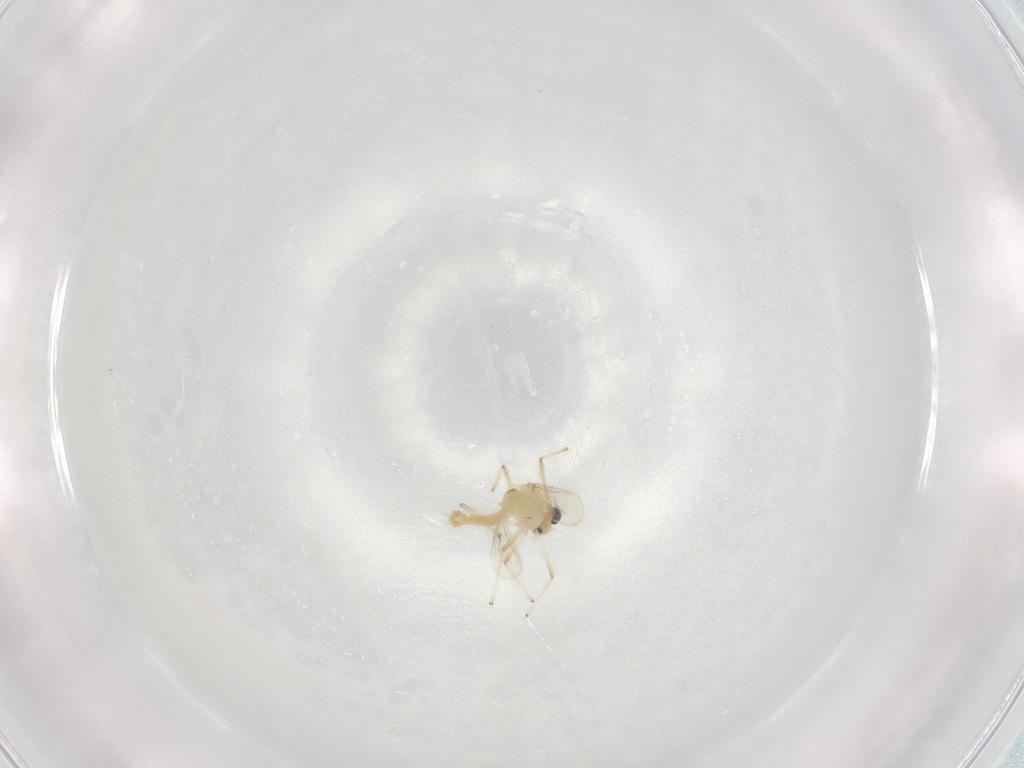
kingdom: Animalia
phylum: Arthropoda
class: Insecta
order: Diptera
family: Chironomidae
